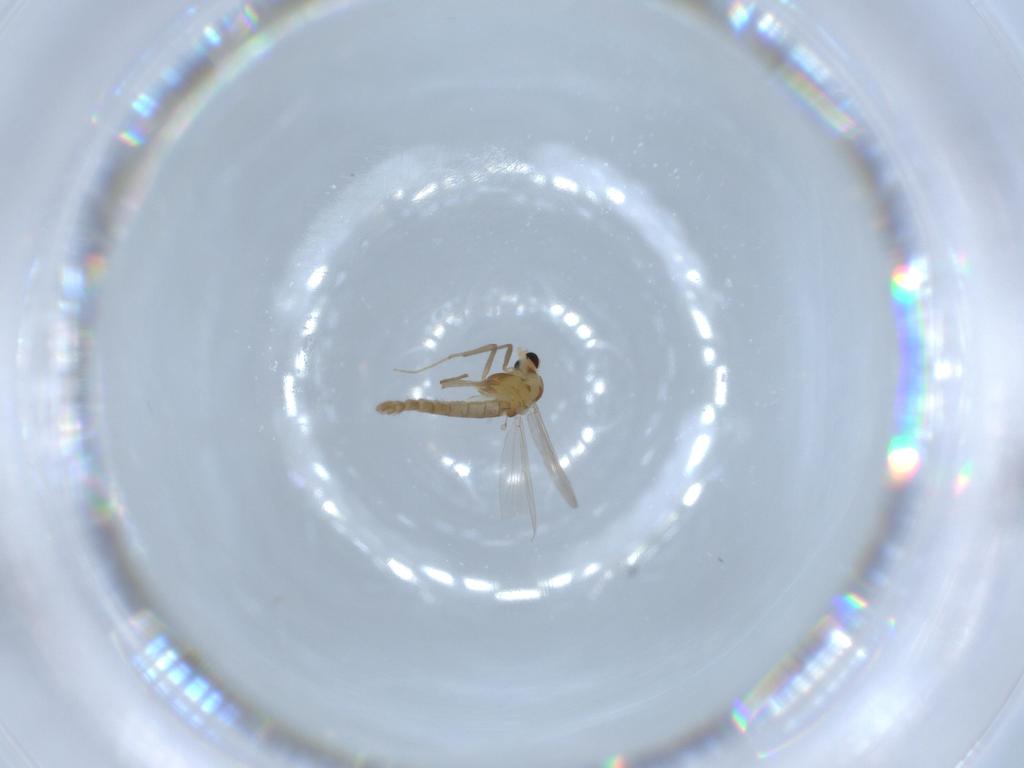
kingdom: Animalia
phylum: Arthropoda
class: Insecta
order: Diptera
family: Chironomidae
